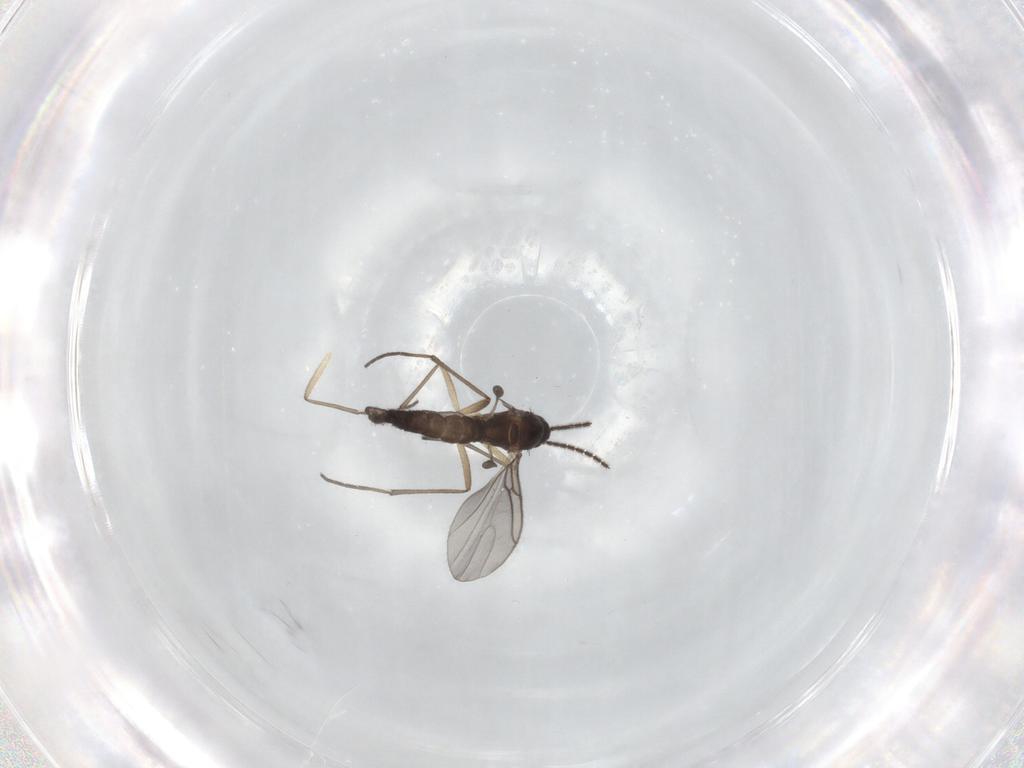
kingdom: Animalia
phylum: Arthropoda
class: Insecta
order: Diptera
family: Sciaridae
